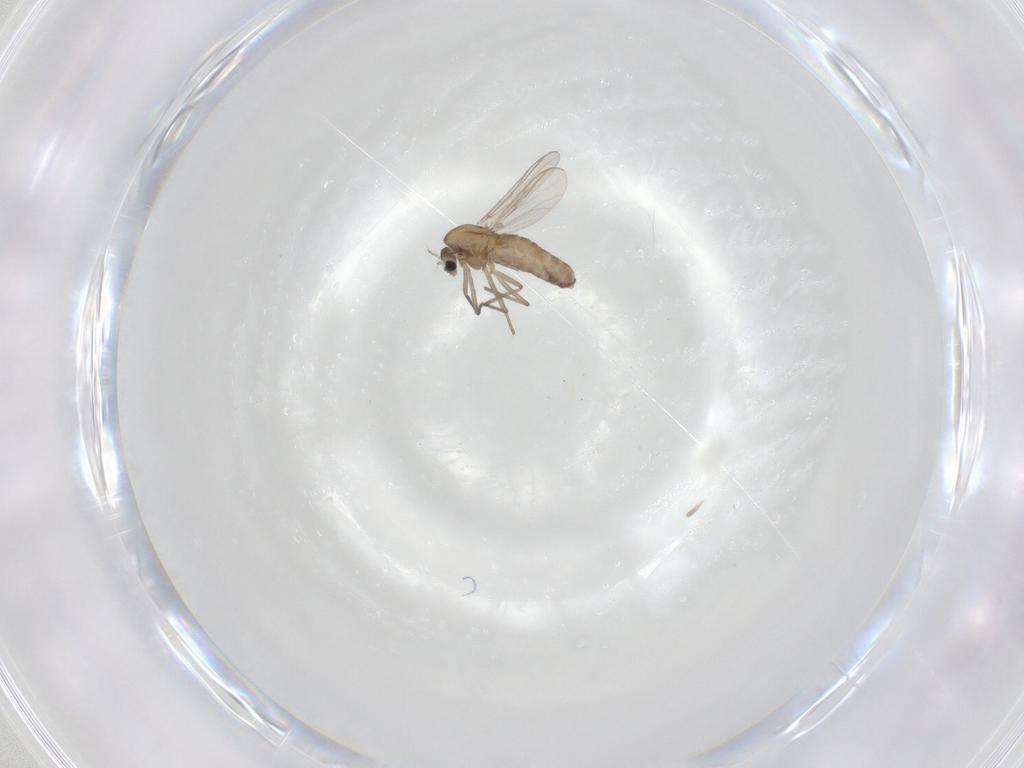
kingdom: Animalia
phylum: Arthropoda
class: Insecta
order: Diptera
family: Chironomidae
